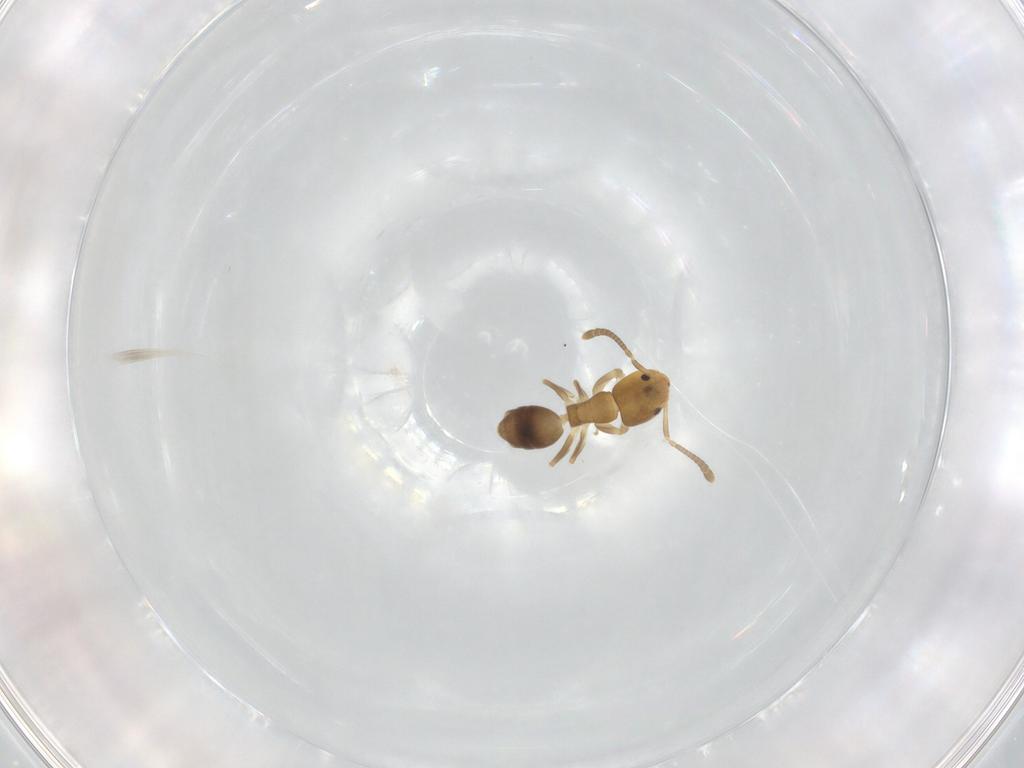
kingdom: Animalia
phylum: Arthropoda
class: Insecta
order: Hymenoptera
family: Formicidae
